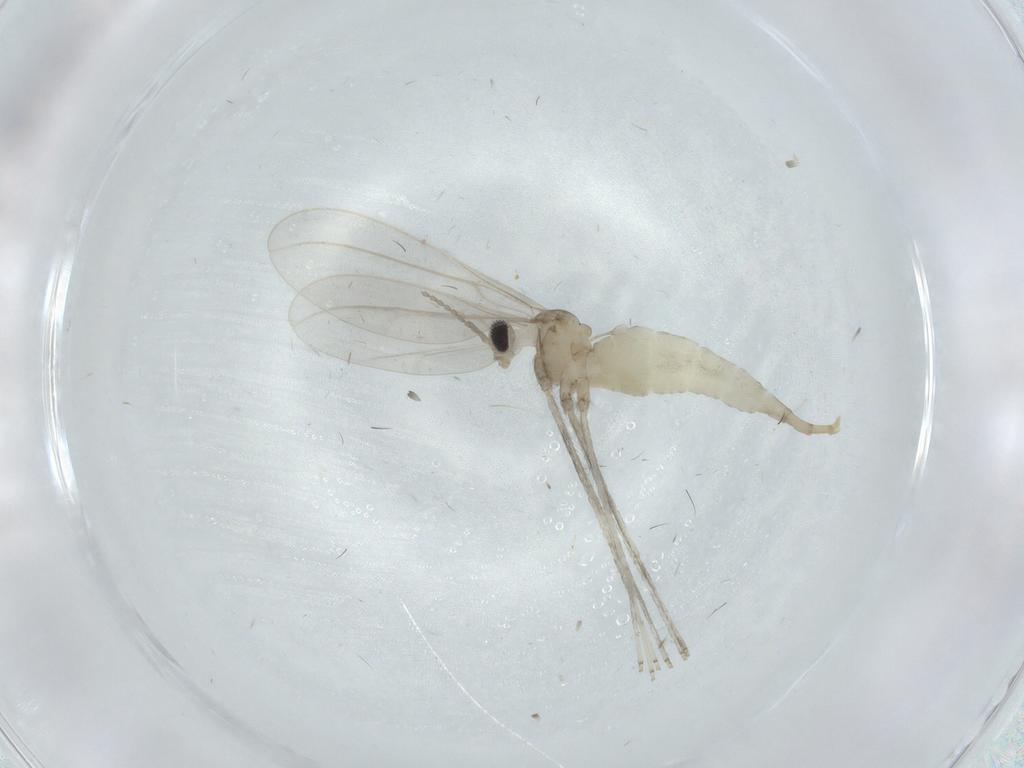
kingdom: Animalia
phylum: Arthropoda
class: Insecta
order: Diptera
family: Cecidomyiidae
